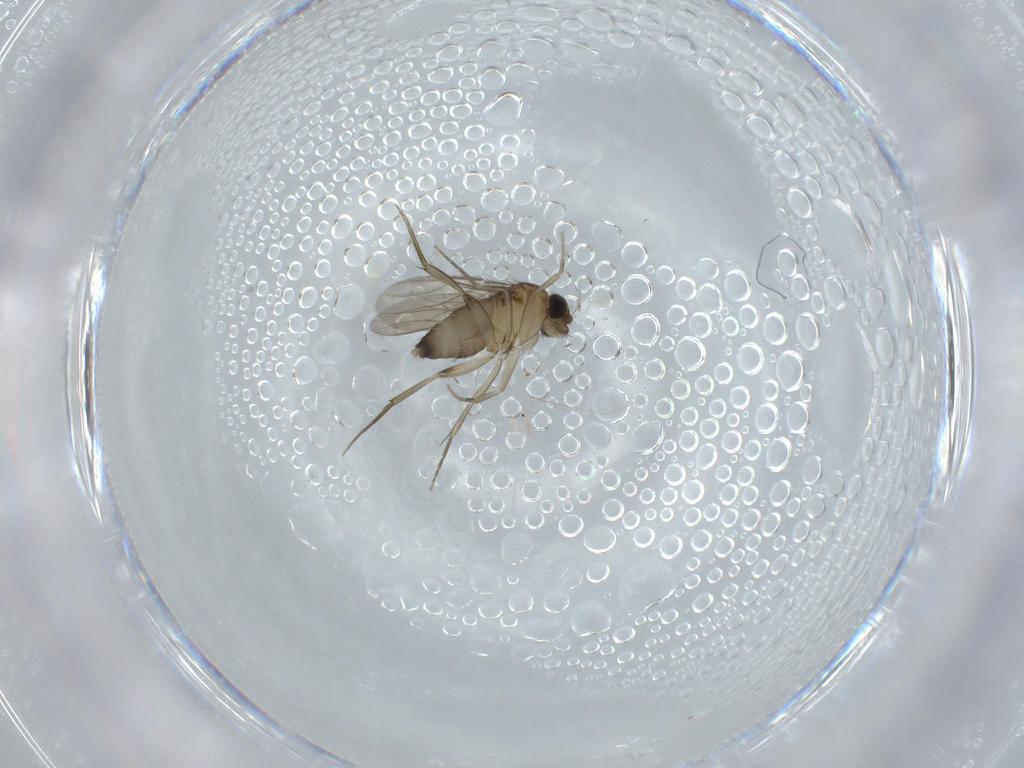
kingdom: Animalia
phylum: Arthropoda
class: Insecta
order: Diptera
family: Phoridae
